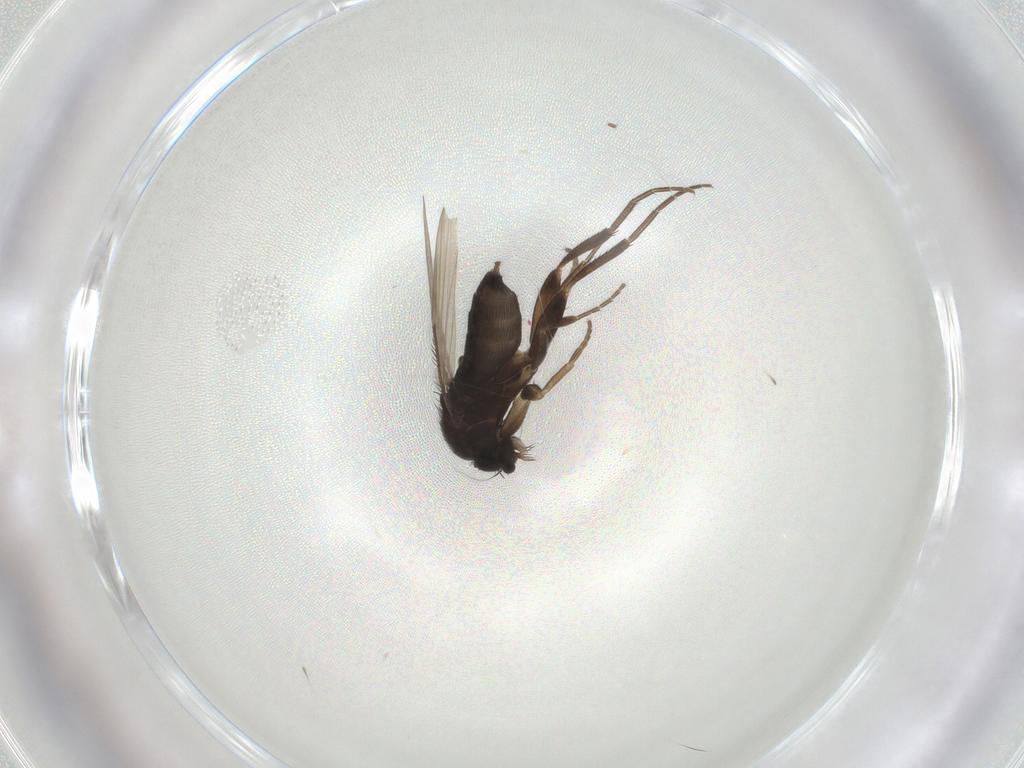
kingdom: Animalia
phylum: Arthropoda
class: Insecta
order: Diptera
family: Phoridae
